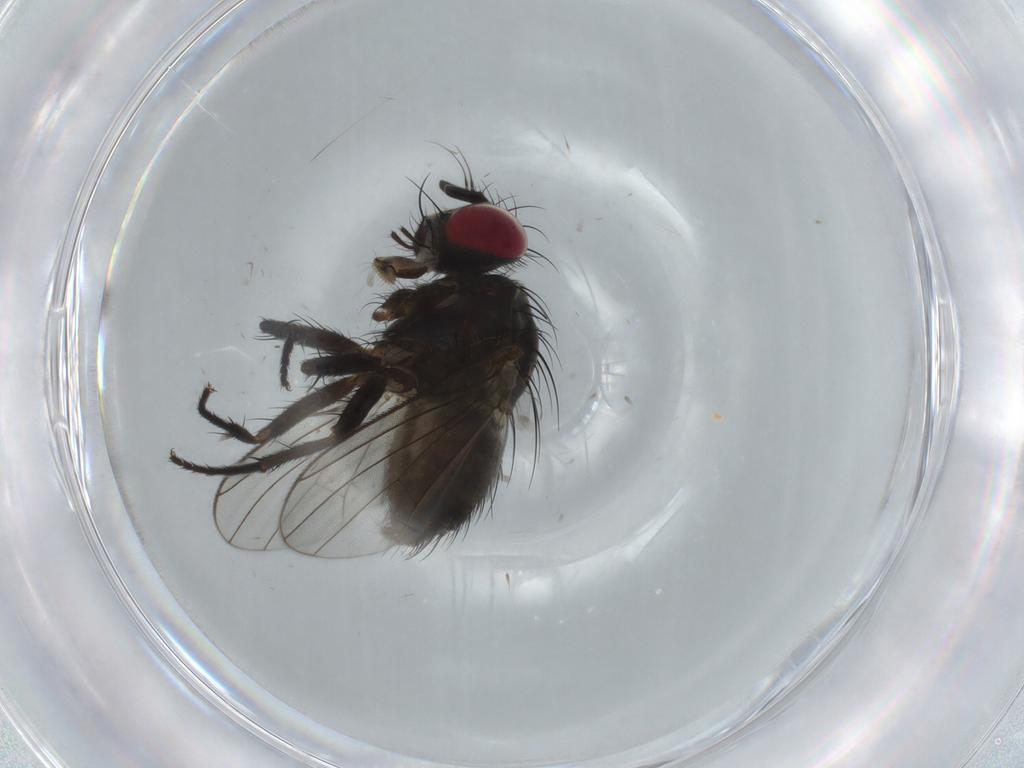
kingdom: Animalia
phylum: Arthropoda
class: Insecta
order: Diptera
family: Muscidae
